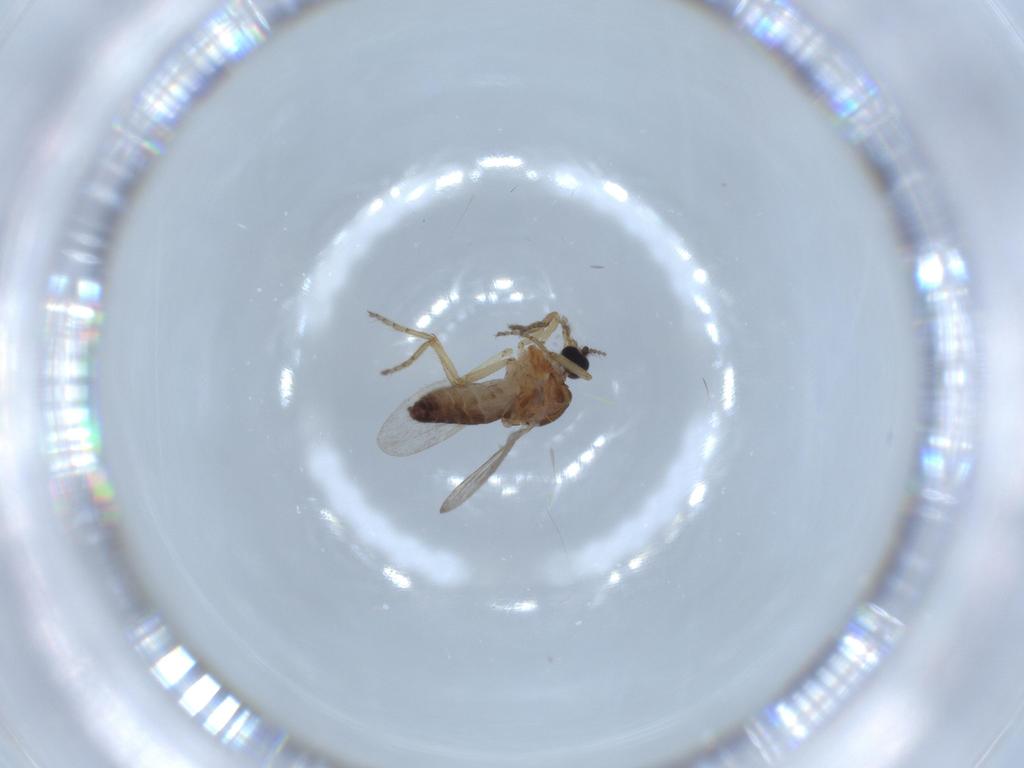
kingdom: Animalia
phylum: Arthropoda
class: Insecta
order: Diptera
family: Ceratopogonidae
